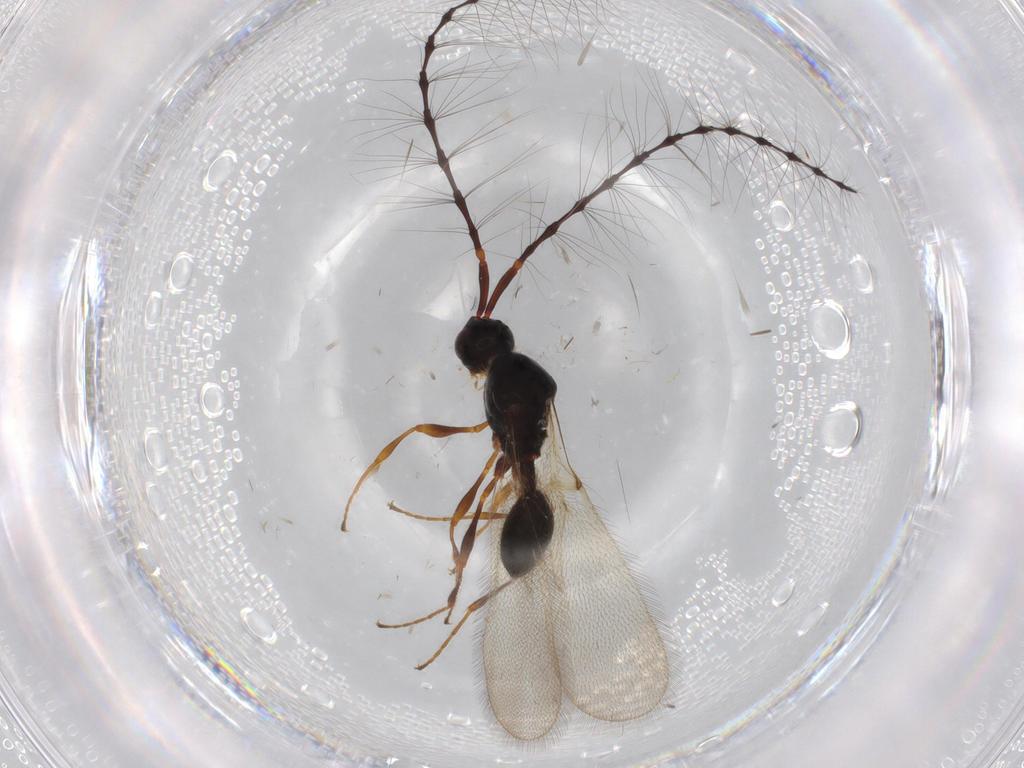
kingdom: Animalia
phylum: Arthropoda
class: Insecta
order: Hymenoptera
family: Diapriidae
